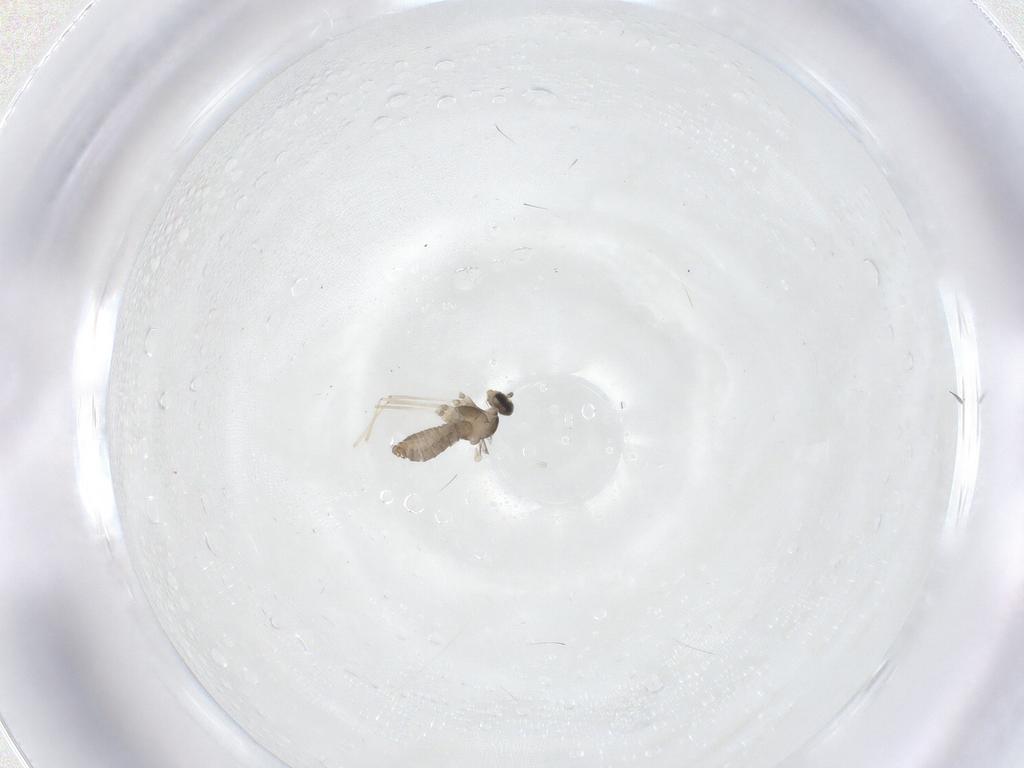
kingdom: Animalia
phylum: Arthropoda
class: Insecta
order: Diptera
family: Cecidomyiidae
